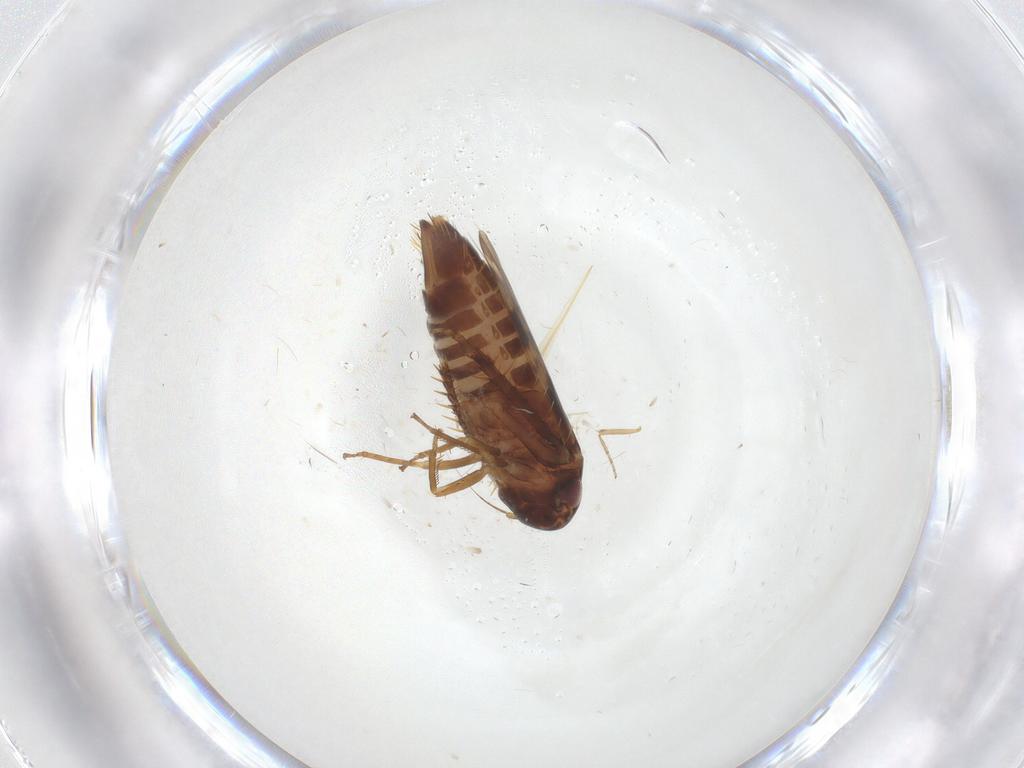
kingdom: Animalia
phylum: Arthropoda
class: Insecta
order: Hemiptera
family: Cicadellidae
